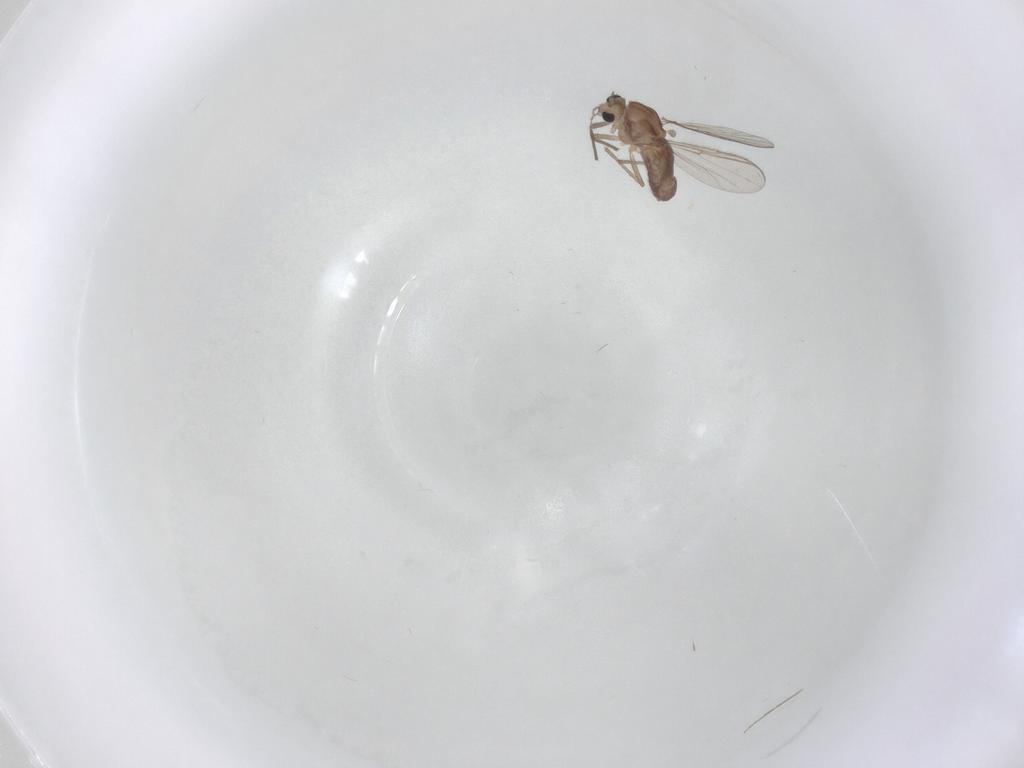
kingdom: Animalia
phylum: Arthropoda
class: Insecta
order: Diptera
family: Chironomidae
